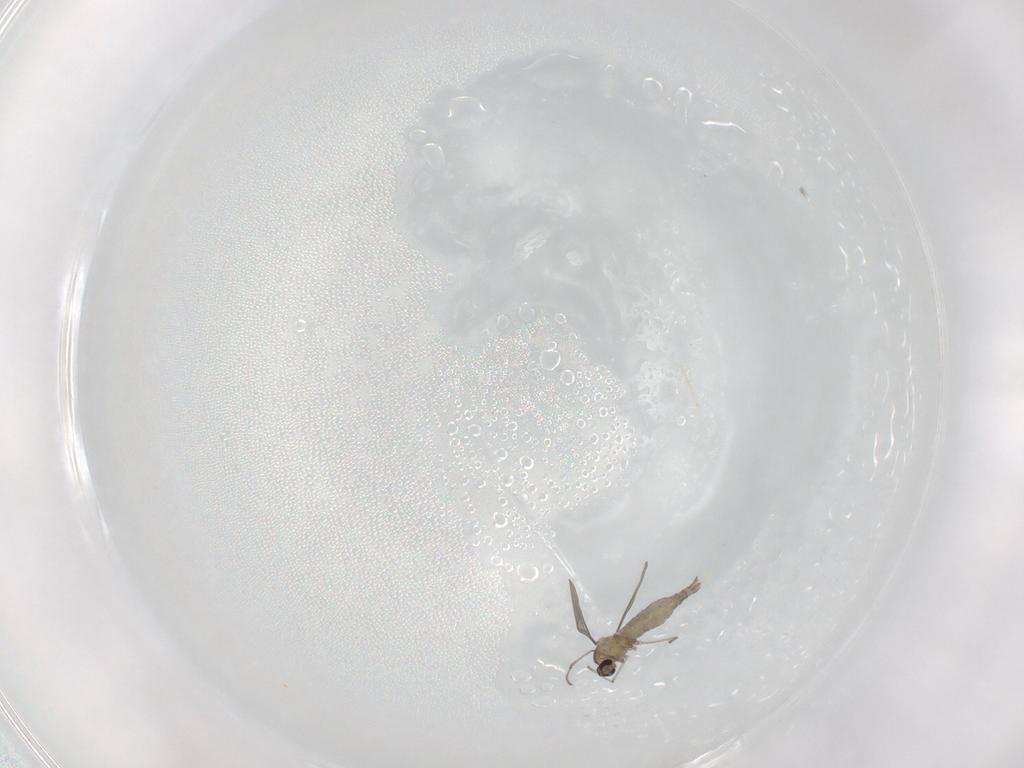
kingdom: Animalia
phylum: Arthropoda
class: Insecta
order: Diptera
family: Cecidomyiidae
